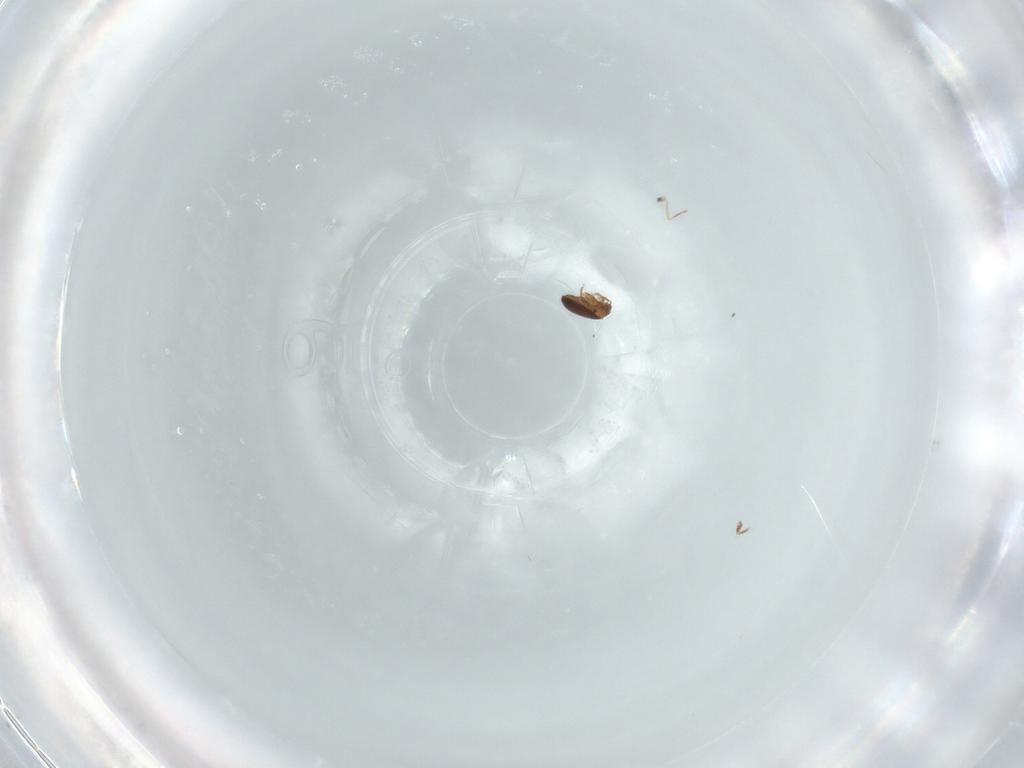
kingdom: Animalia
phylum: Arthropoda
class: Arachnida
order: Sarcoptiformes
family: Scheloribatidae
